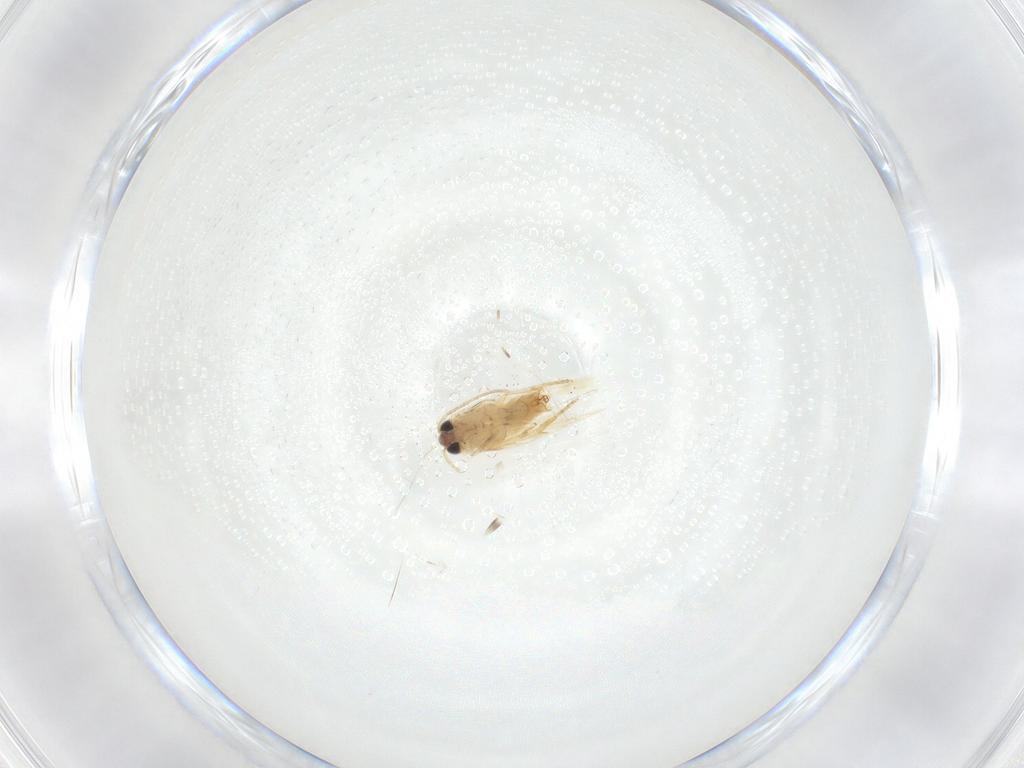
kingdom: Animalia
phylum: Arthropoda
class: Insecta
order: Lepidoptera
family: Crambidae
